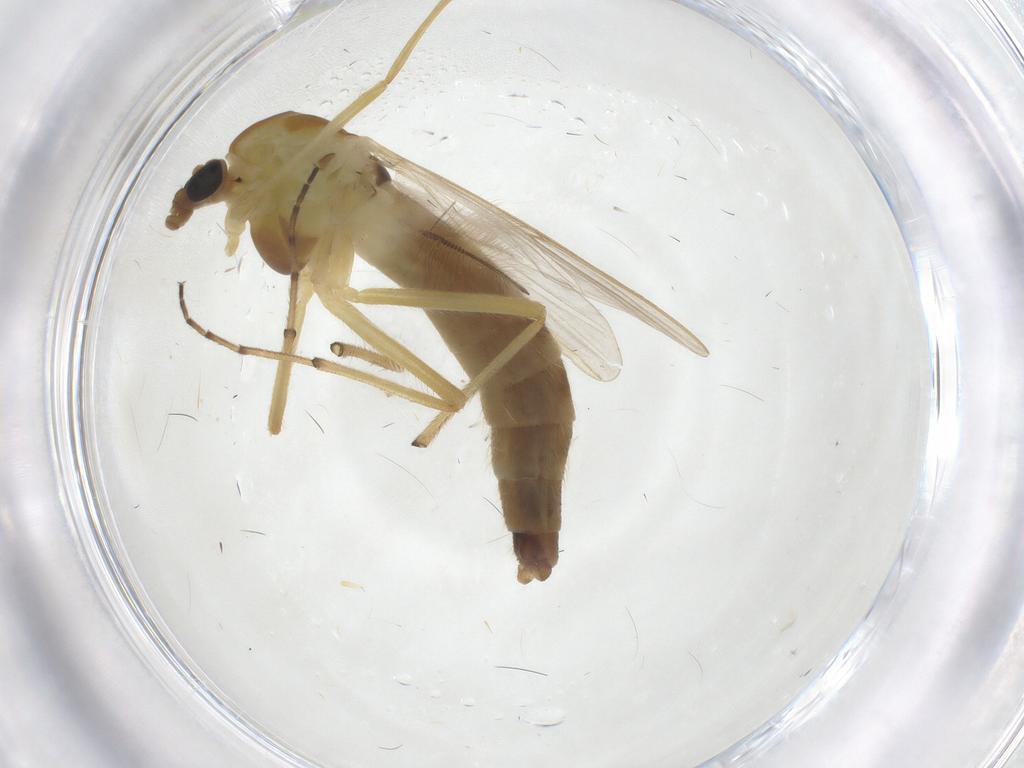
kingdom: Animalia
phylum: Arthropoda
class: Insecta
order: Diptera
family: Chironomidae
